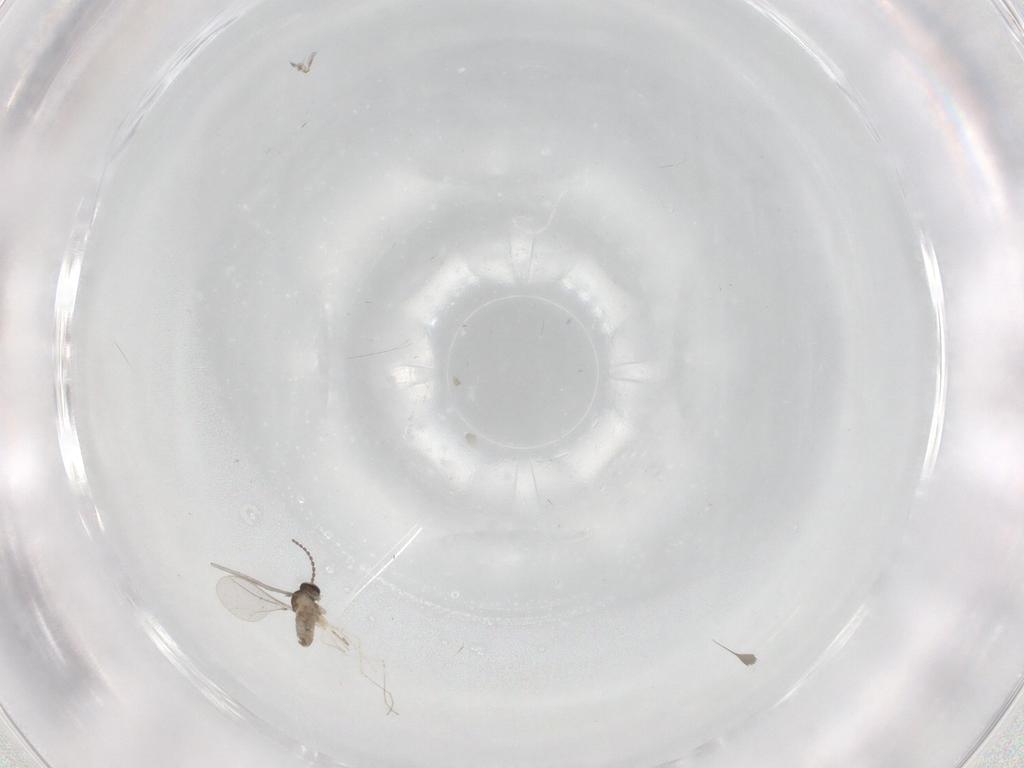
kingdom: Animalia
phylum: Arthropoda
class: Insecta
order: Diptera
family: Cecidomyiidae
